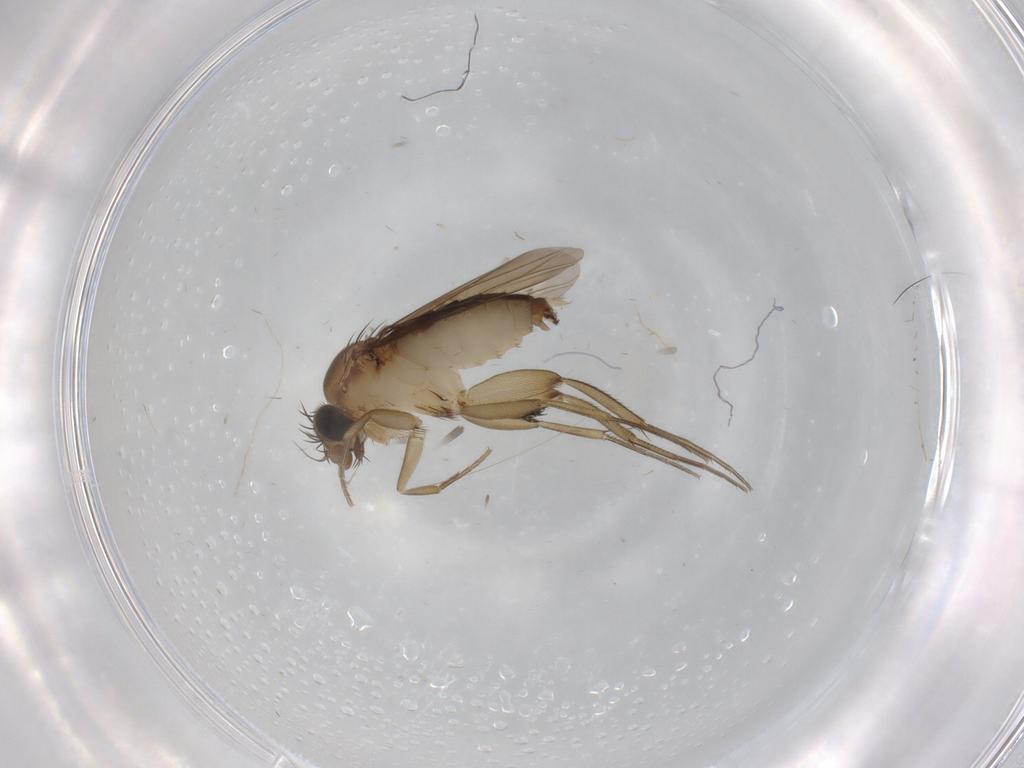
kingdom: Animalia
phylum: Arthropoda
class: Insecta
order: Diptera
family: Phoridae
